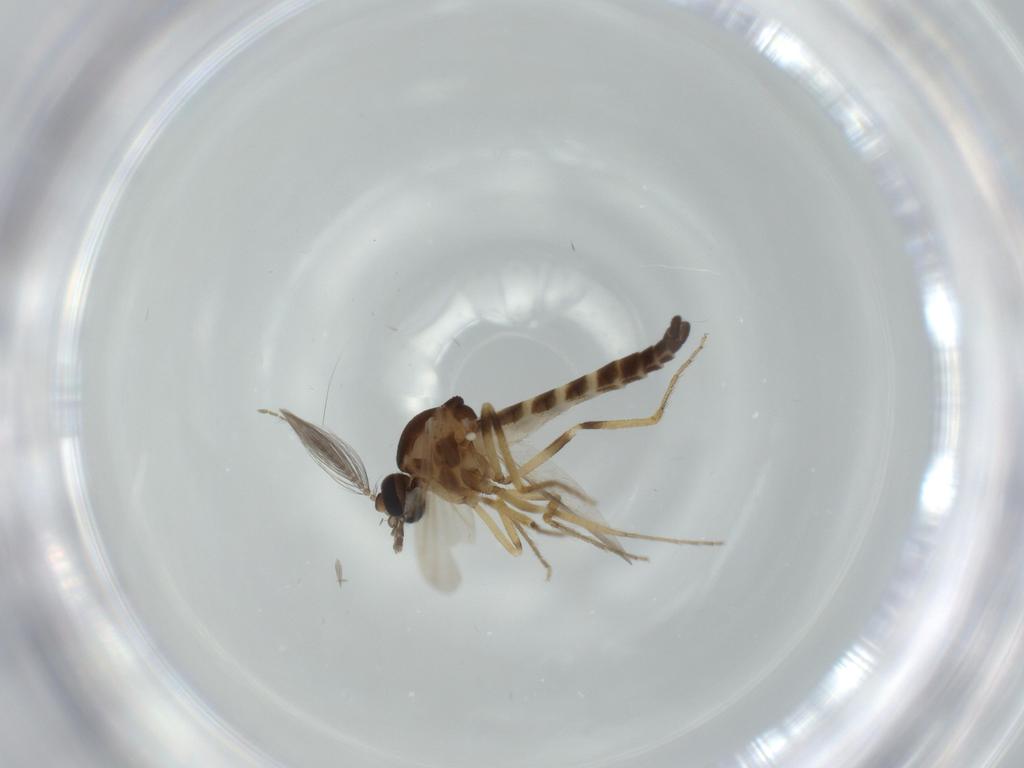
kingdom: Animalia
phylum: Arthropoda
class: Insecta
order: Diptera
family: Ceratopogonidae
